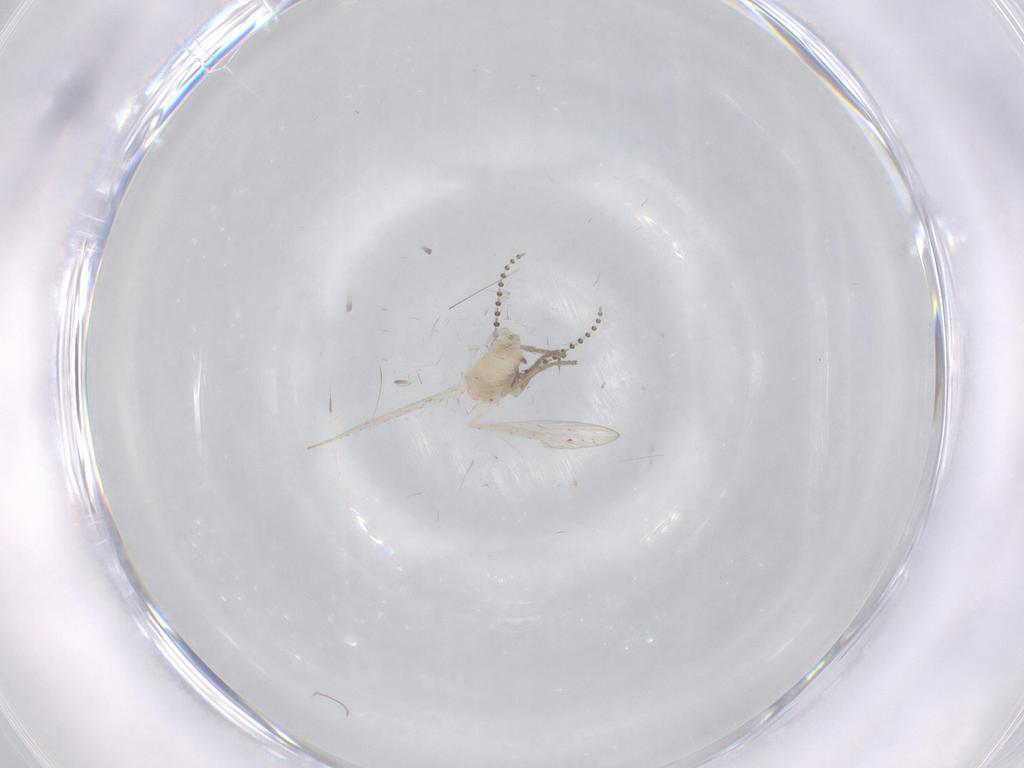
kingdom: Animalia
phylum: Arthropoda
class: Insecta
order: Diptera
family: Psychodidae
